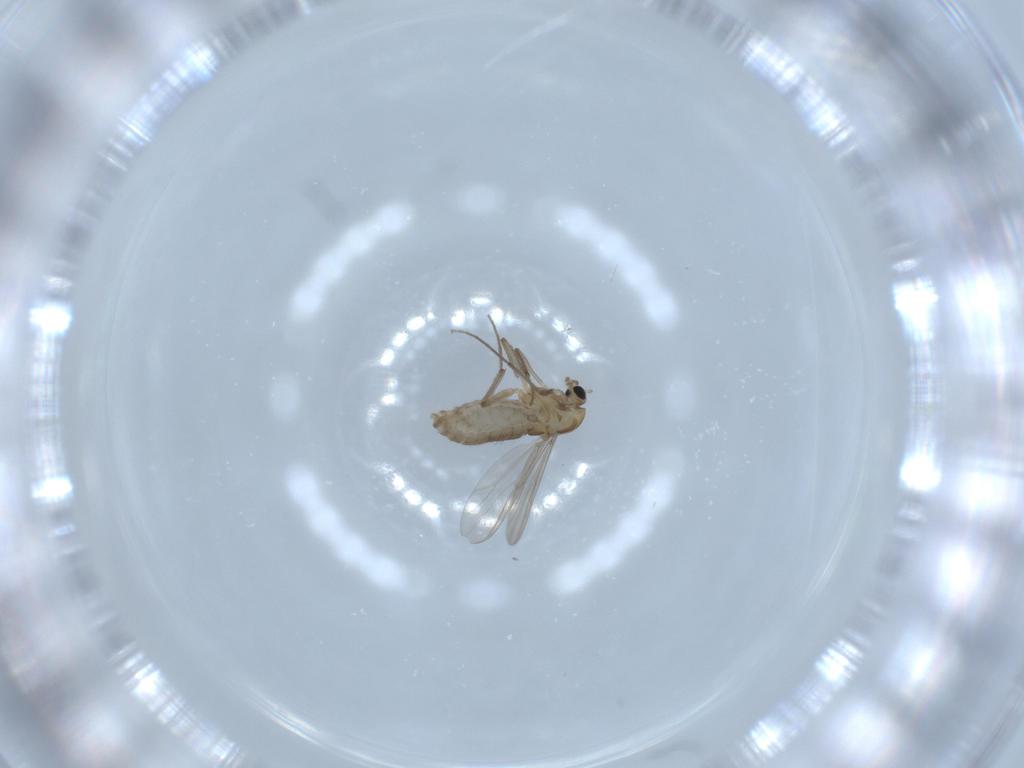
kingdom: Animalia
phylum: Arthropoda
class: Insecta
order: Diptera
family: Chironomidae
